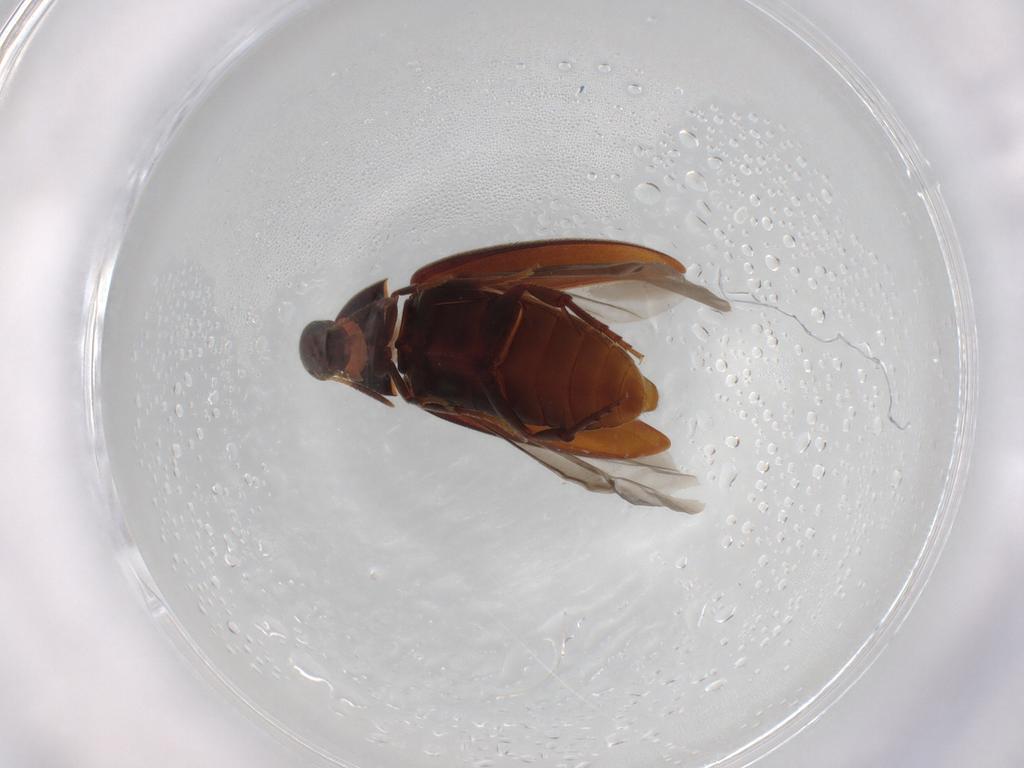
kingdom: Animalia
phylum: Arthropoda
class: Insecta
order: Coleoptera
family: Melandryidae
